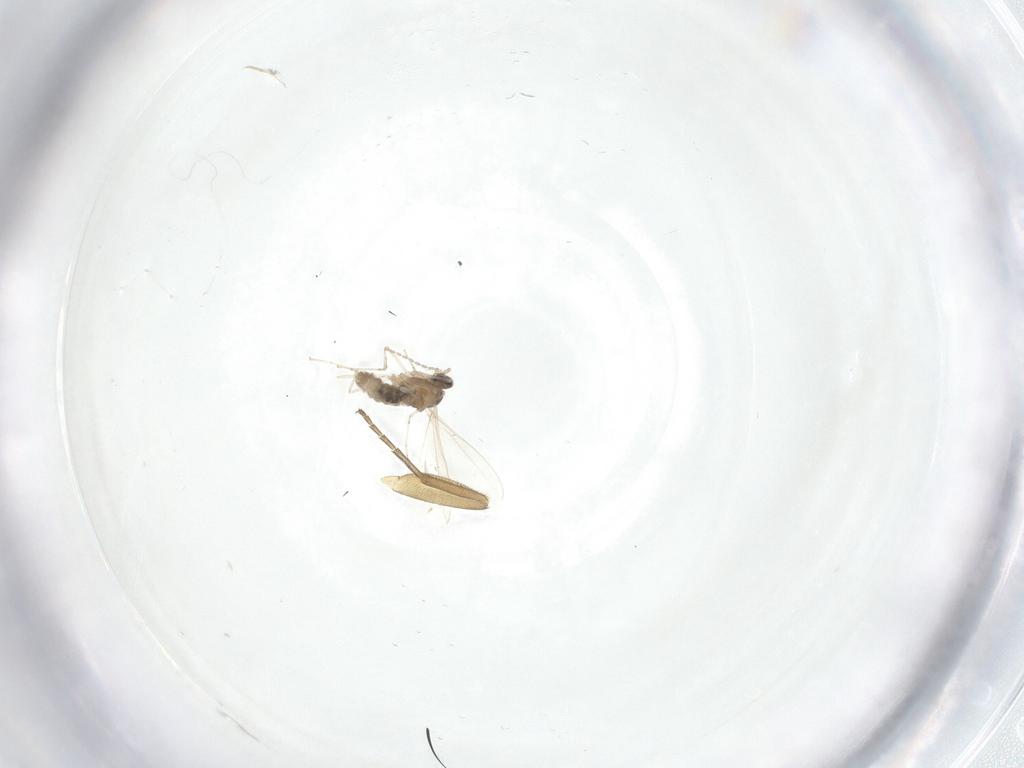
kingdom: Animalia
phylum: Arthropoda
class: Insecta
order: Diptera
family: Cecidomyiidae
